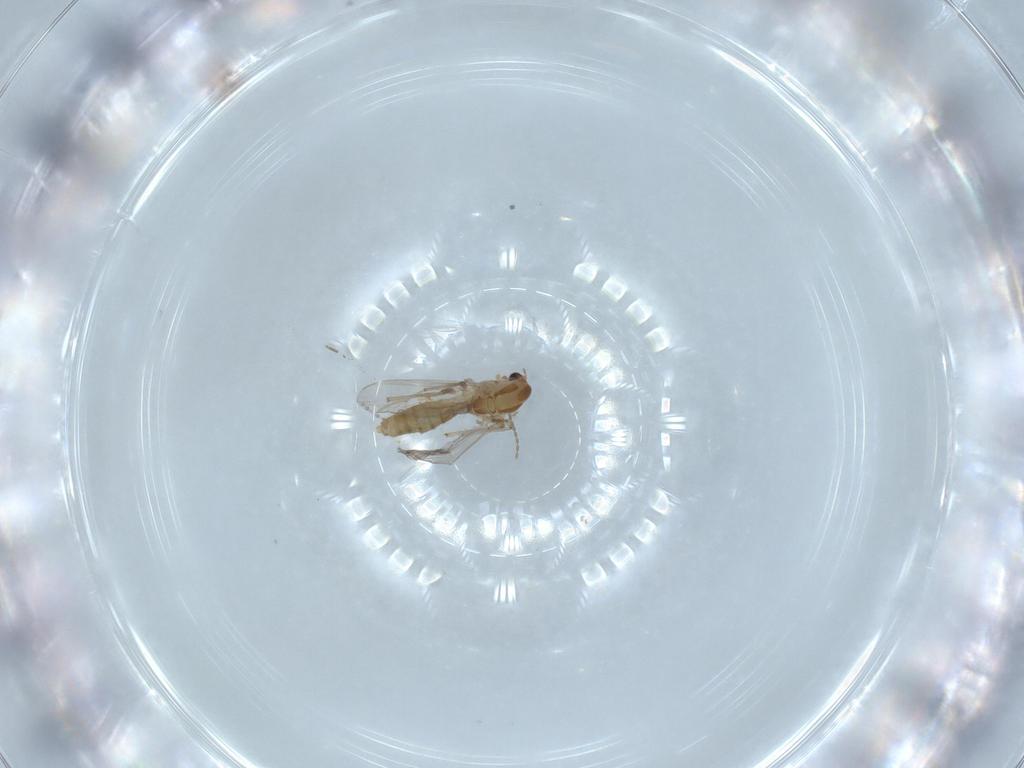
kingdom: Animalia
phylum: Arthropoda
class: Insecta
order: Diptera
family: Chironomidae
